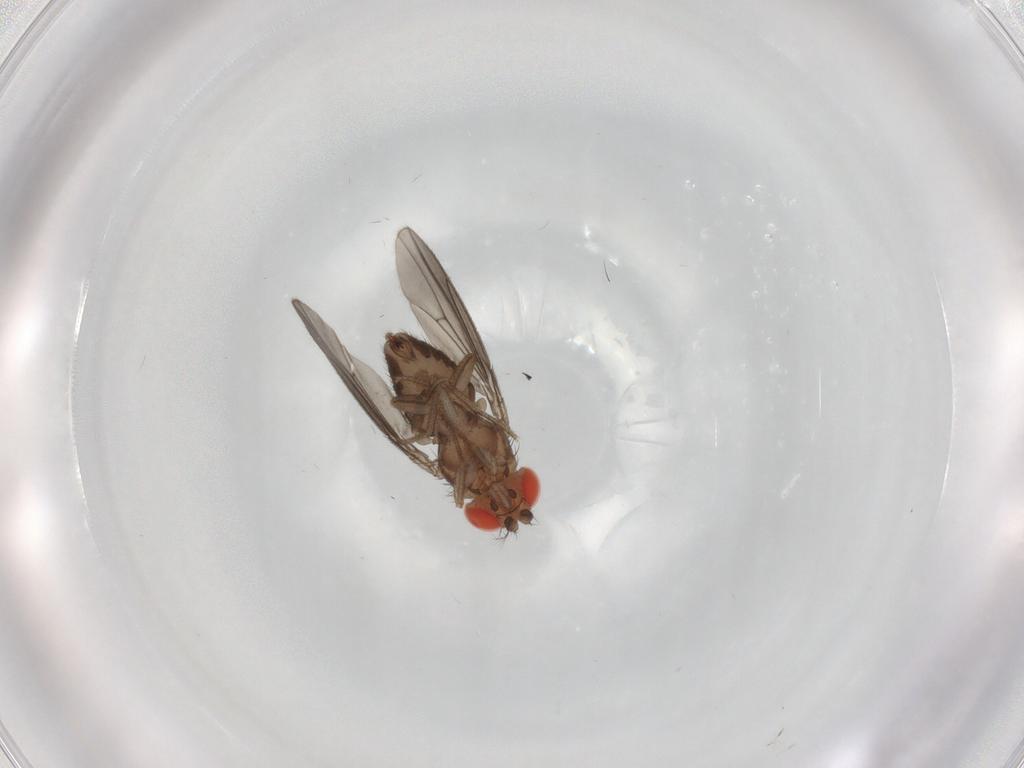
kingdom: Animalia
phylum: Arthropoda
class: Insecta
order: Diptera
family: Drosophilidae
